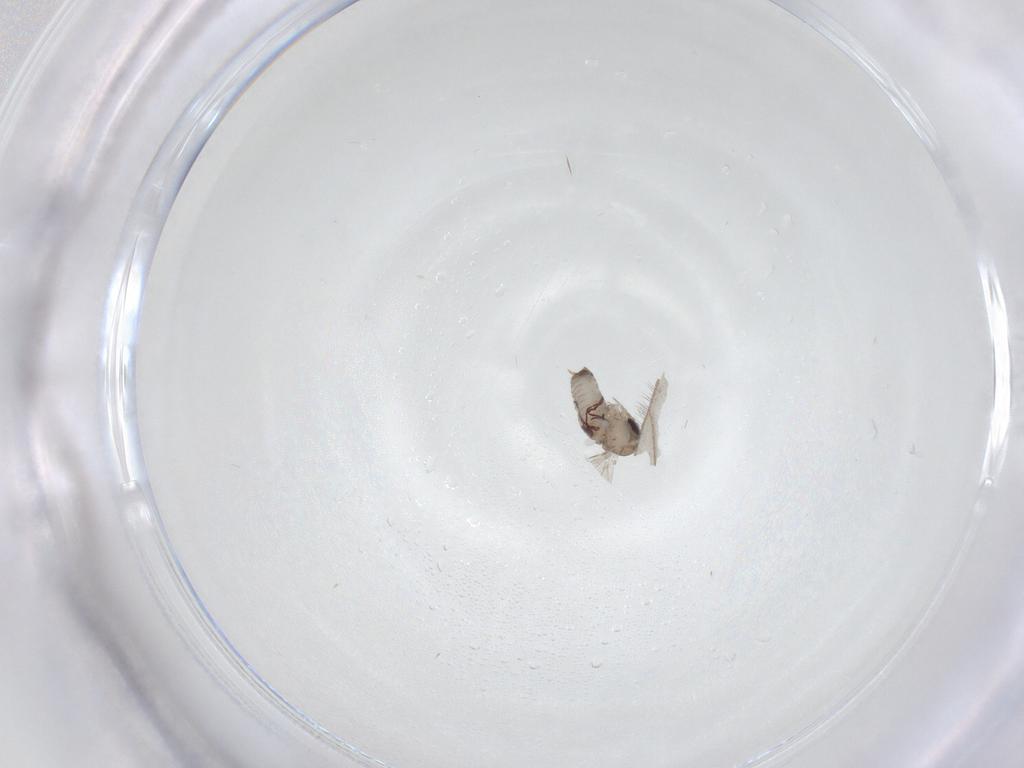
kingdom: Animalia
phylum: Arthropoda
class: Insecta
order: Diptera
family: Psychodidae
